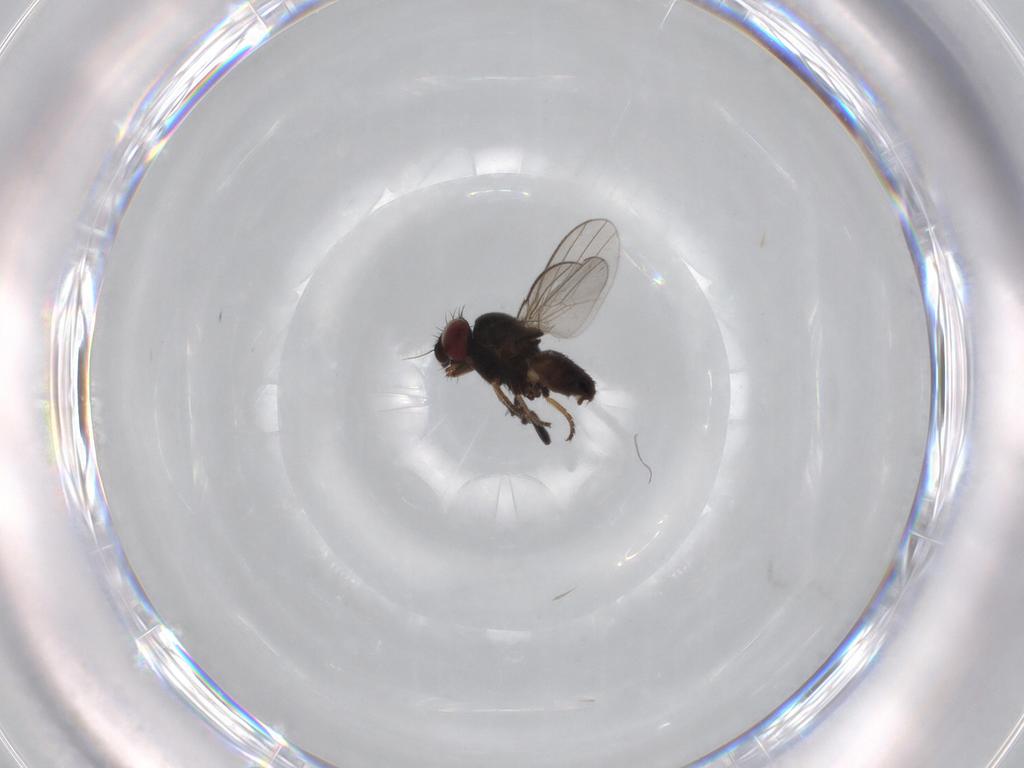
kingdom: Animalia
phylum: Arthropoda
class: Insecta
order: Diptera
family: Milichiidae
